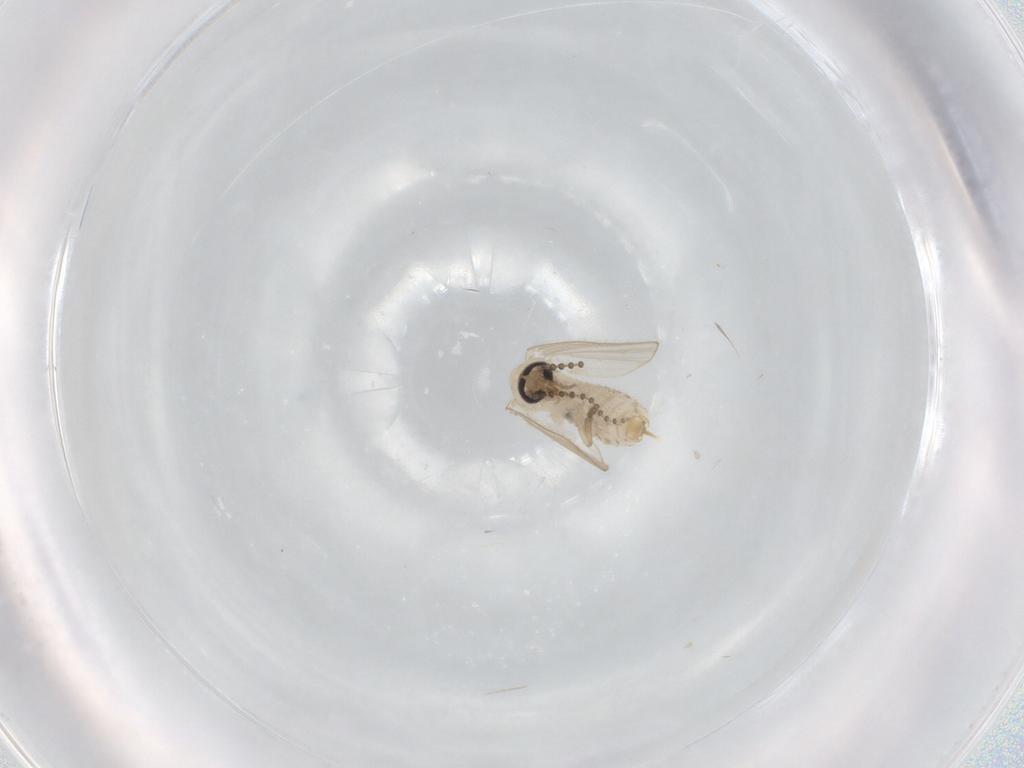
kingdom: Animalia
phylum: Arthropoda
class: Insecta
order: Diptera
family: Psychodidae
